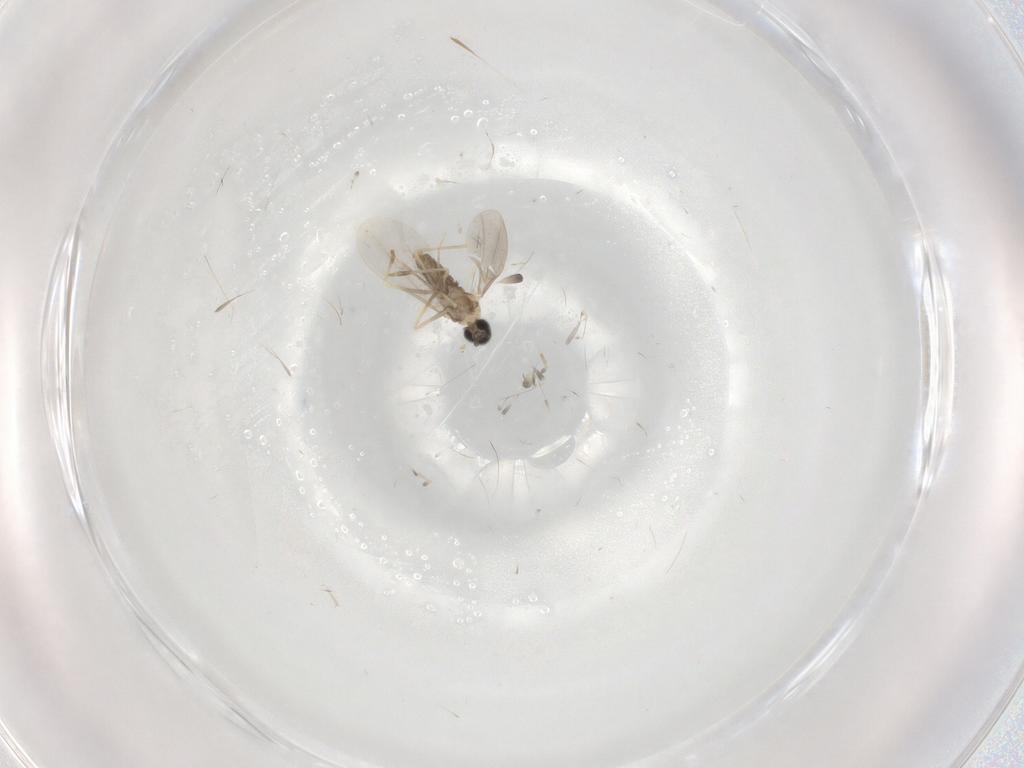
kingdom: Animalia
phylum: Arthropoda
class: Insecta
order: Diptera
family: Cecidomyiidae
